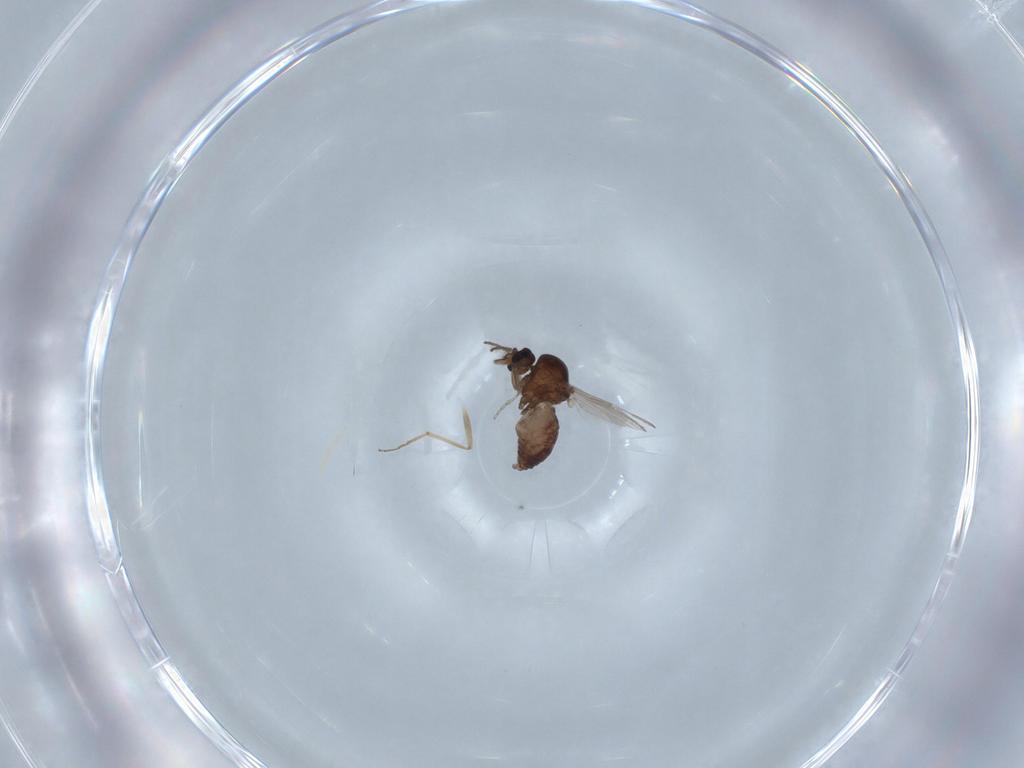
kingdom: Animalia
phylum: Arthropoda
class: Insecta
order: Diptera
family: Ceratopogonidae
